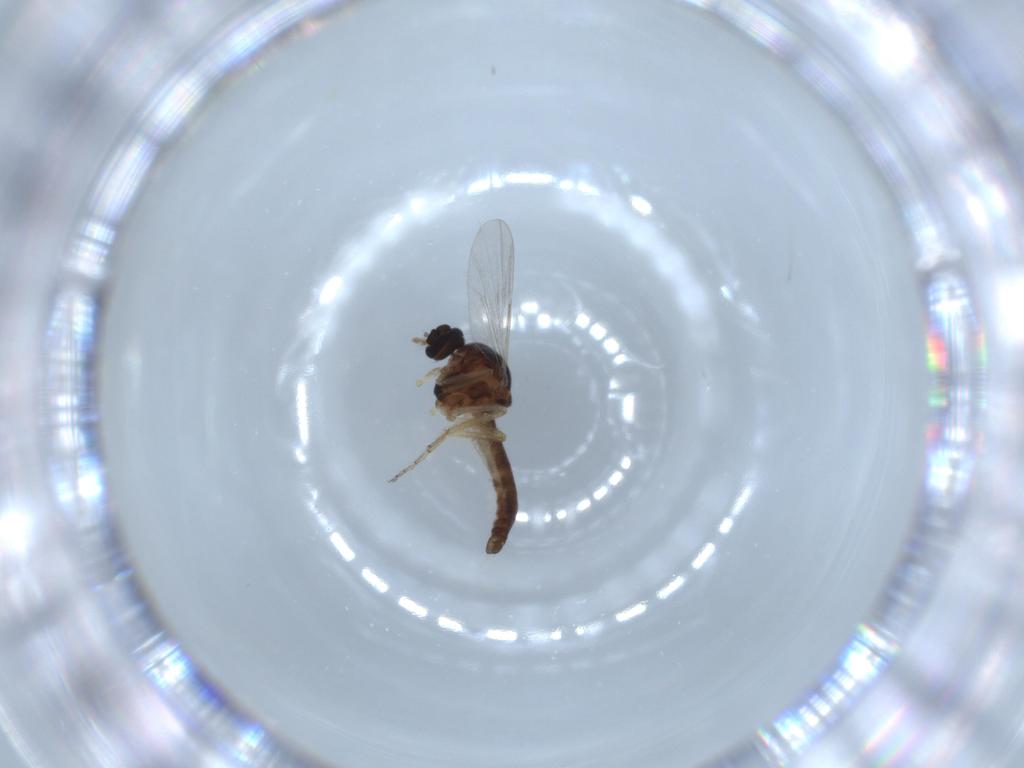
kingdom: Animalia
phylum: Arthropoda
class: Insecta
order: Diptera
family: Ceratopogonidae
